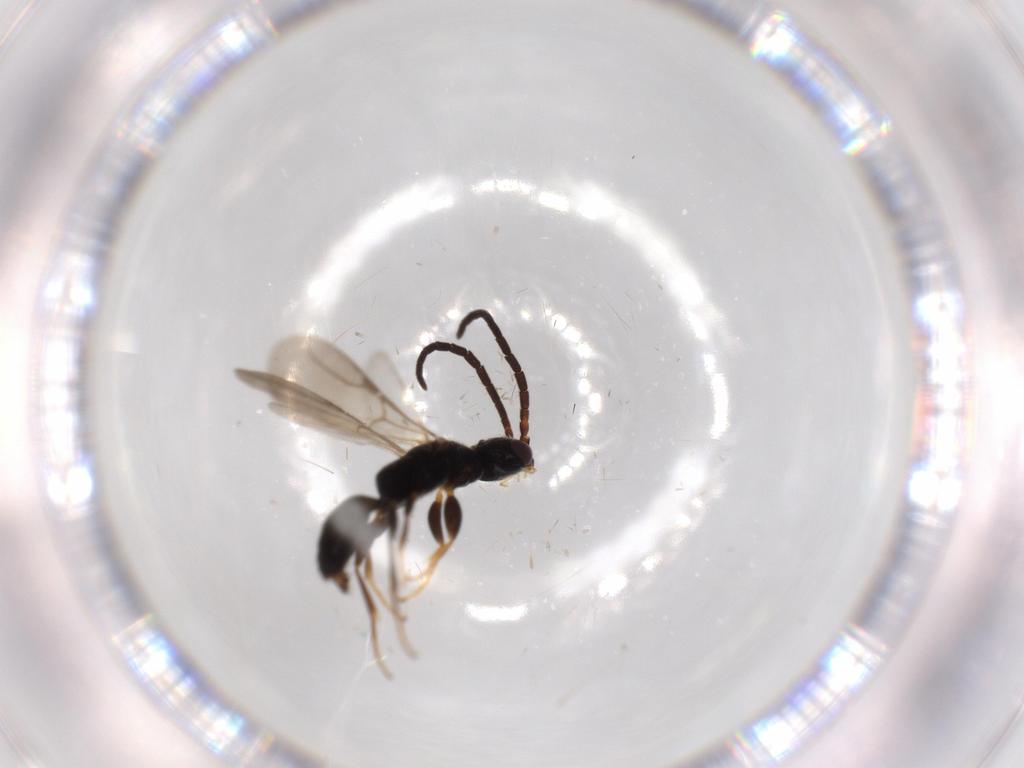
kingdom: Animalia
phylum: Arthropoda
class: Insecta
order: Hymenoptera
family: Bethylidae
